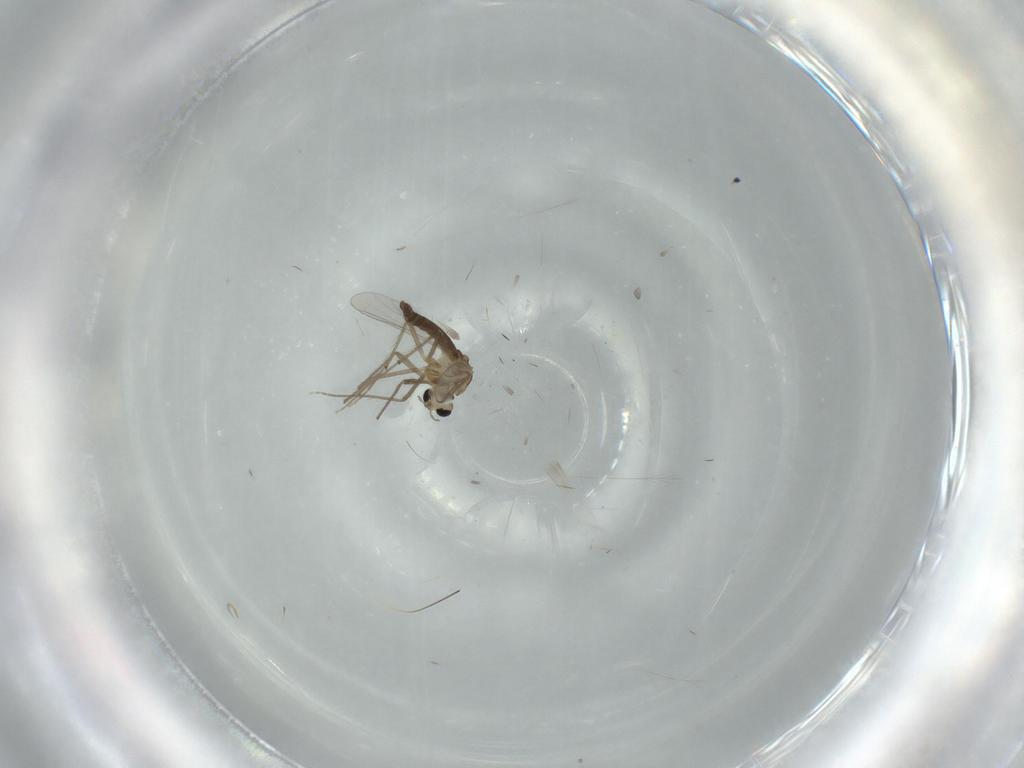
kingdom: Animalia
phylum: Arthropoda
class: Insecta
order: Diptera
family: Chironomidae
